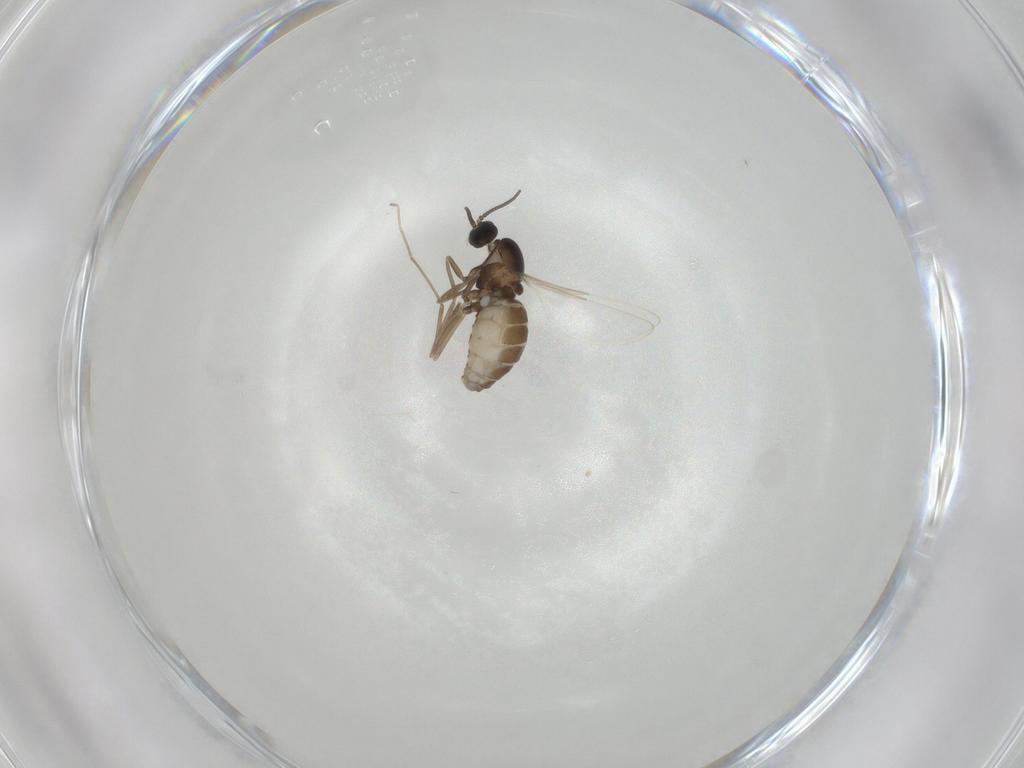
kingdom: Animalia
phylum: Arthropoda
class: Insecta
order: Diptera
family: Cecidomyiidae
